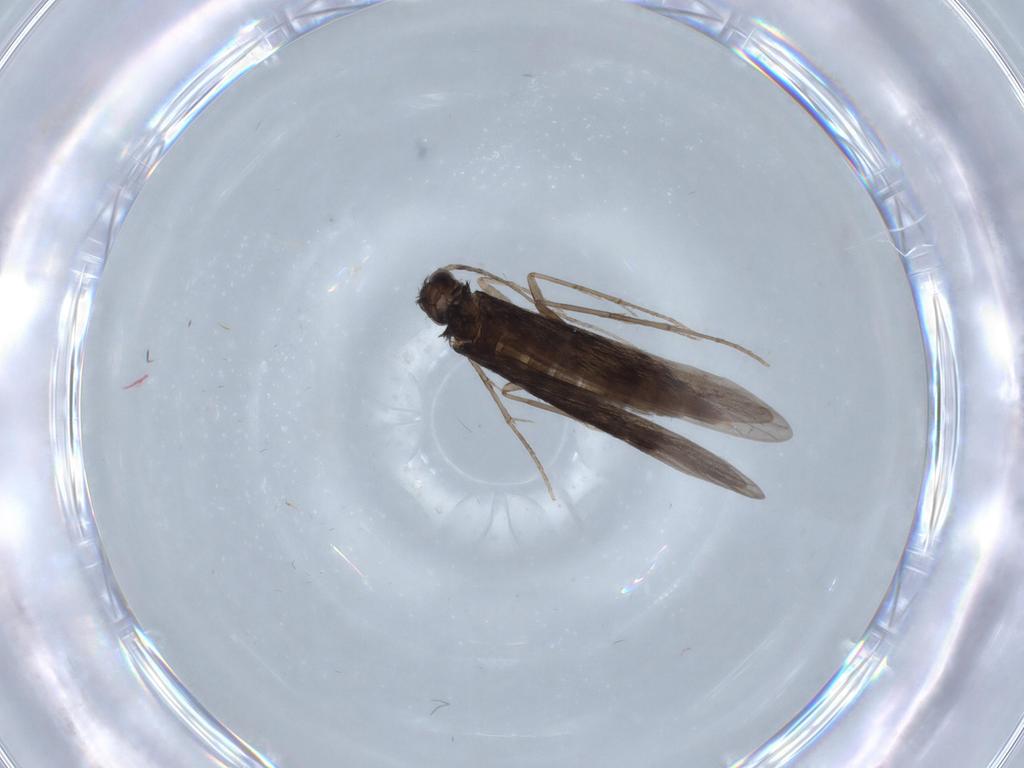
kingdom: Animalia
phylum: Arthropoda
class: Insecta
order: Trichoptera
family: Xiphocentronidae
